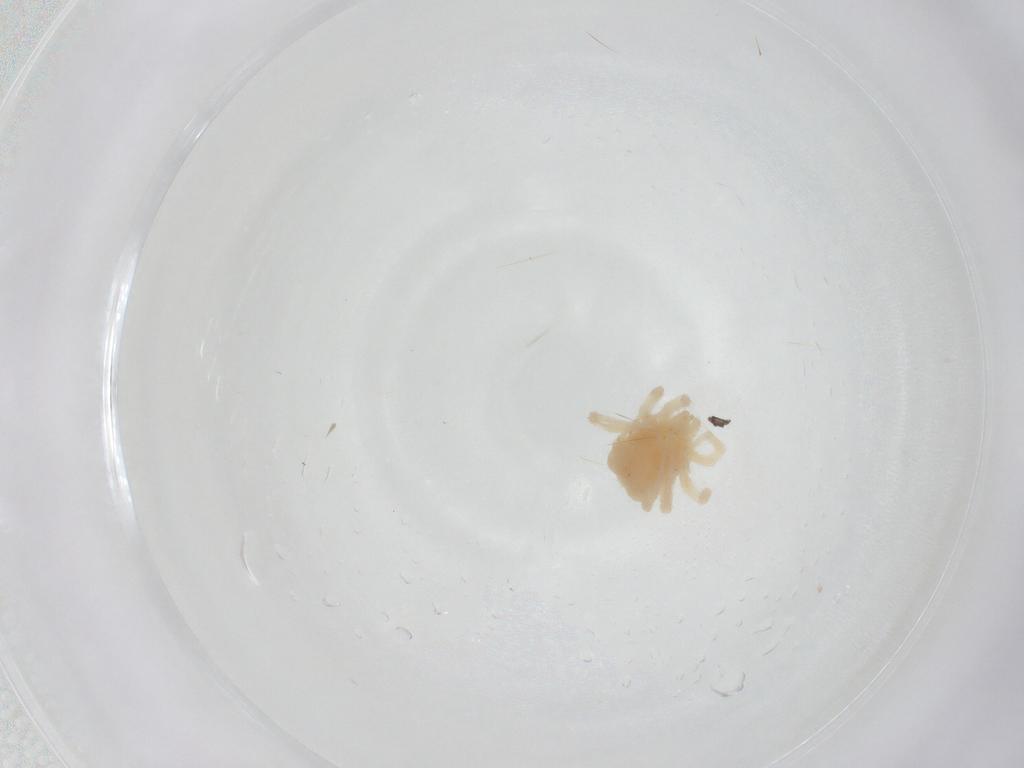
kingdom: Animalia
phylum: Arthropoda
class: Arachnida
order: Trombidiformes
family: Anystidae
